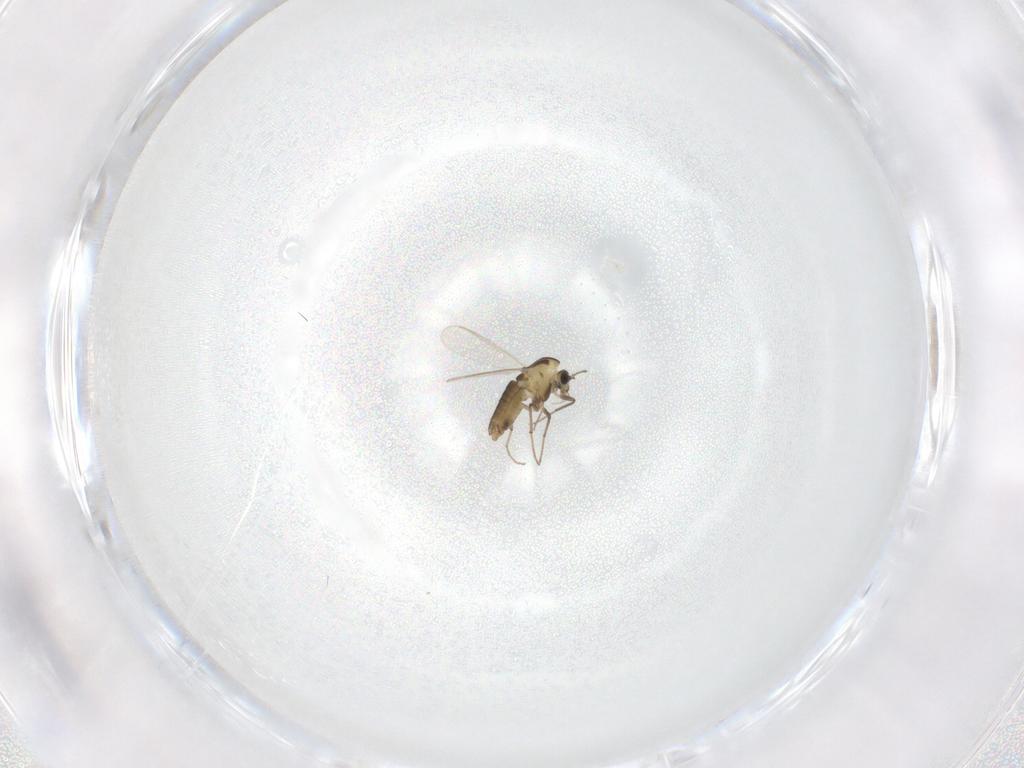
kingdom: Animalia
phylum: Arthropoda
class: Insecta
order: Diptera
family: Chironomidae
